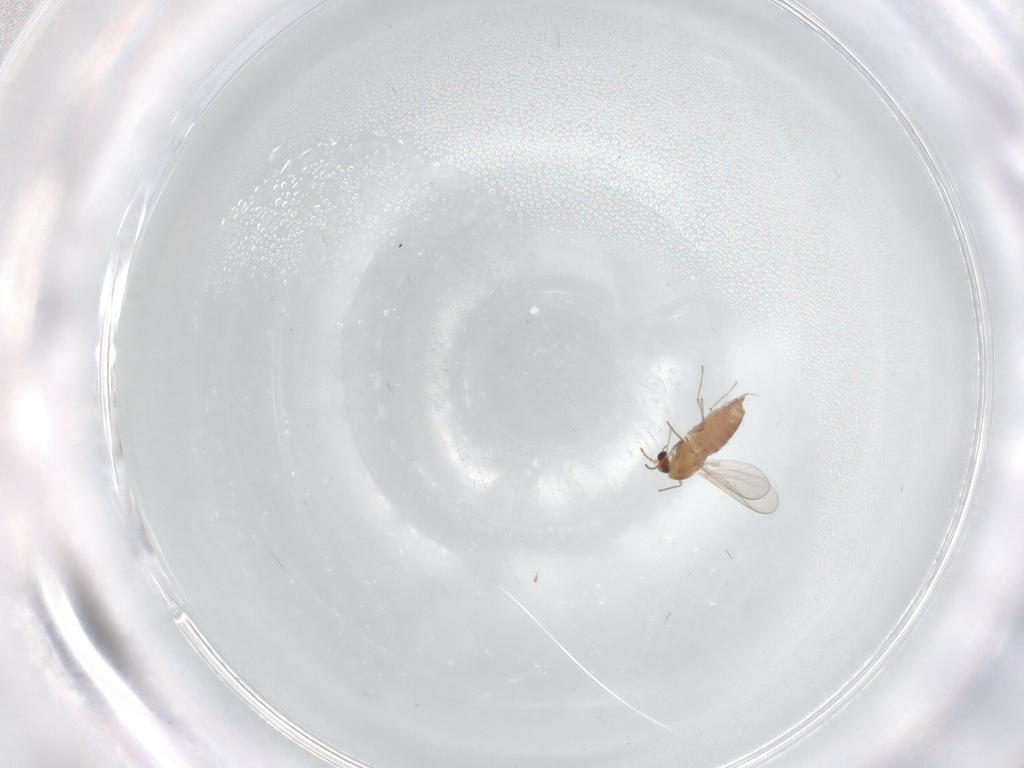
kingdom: Animalia
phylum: Arthropoda
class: Insecta
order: Diptera
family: Chironomidae
